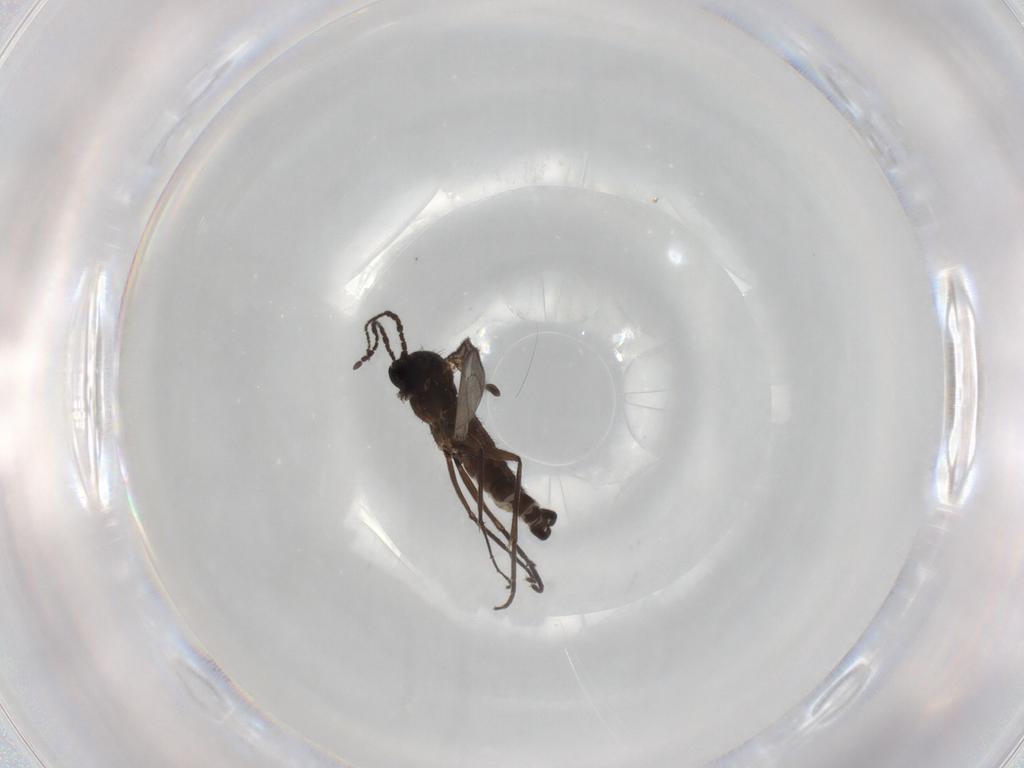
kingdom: Animalia
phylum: Arthropoda
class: Insecta
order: Diptera
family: Sciaridae
